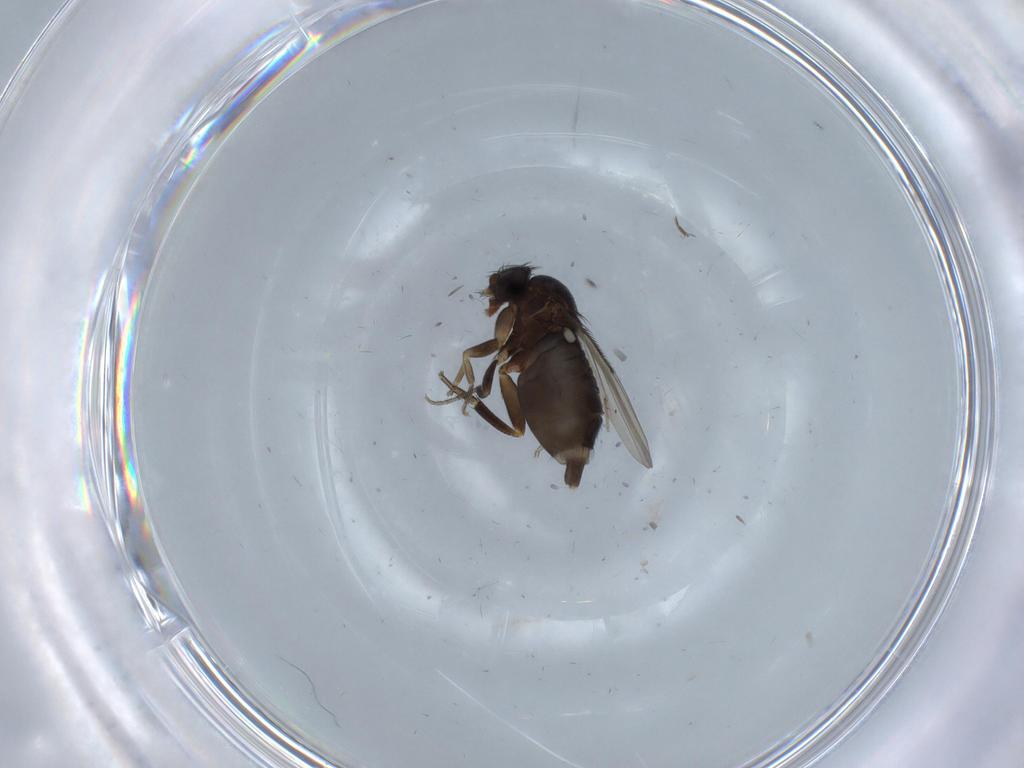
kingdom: Animalia
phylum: Arthropoda
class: Insecta
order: Diptera
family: Phoridae
